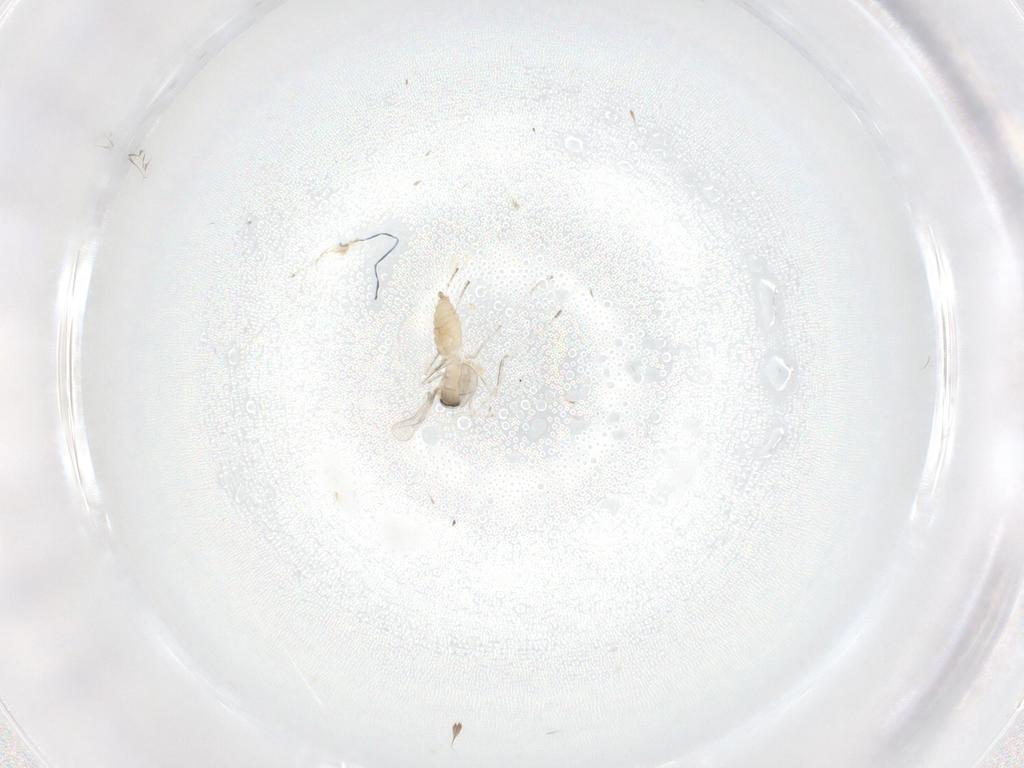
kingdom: Animalia
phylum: Arthropoda
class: Insecta
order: Diptera
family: Cecidomyiidae
